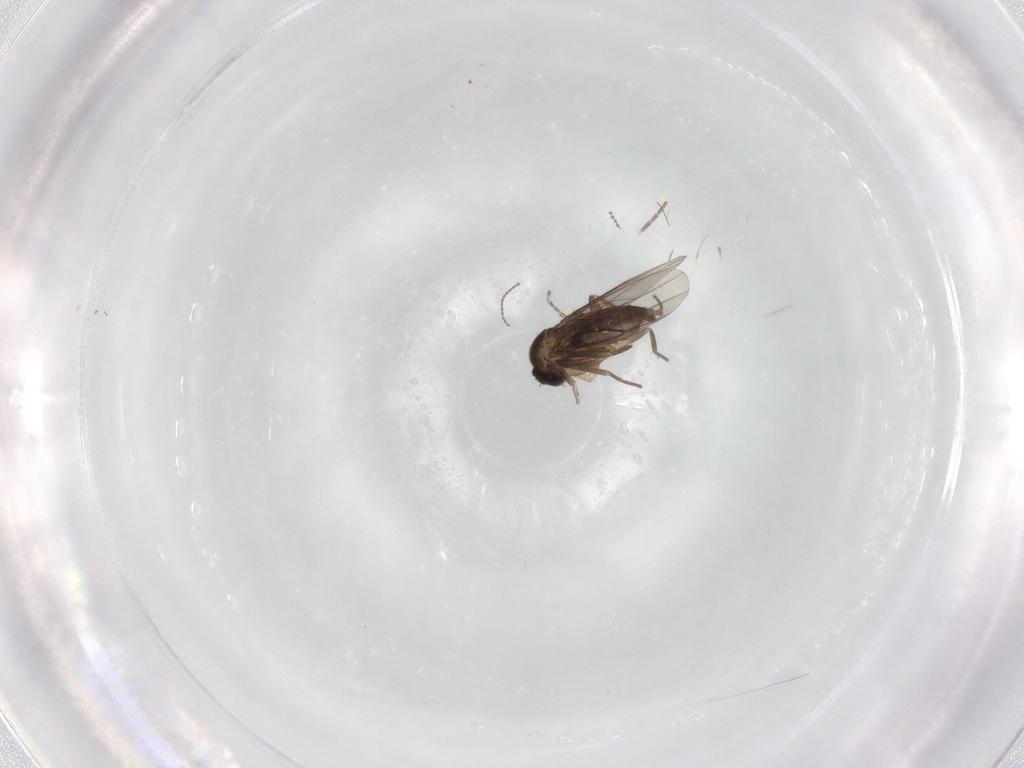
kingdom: Animalia
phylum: Arthropoda
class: Insecta
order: Diptera
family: Cecidomyiidae
